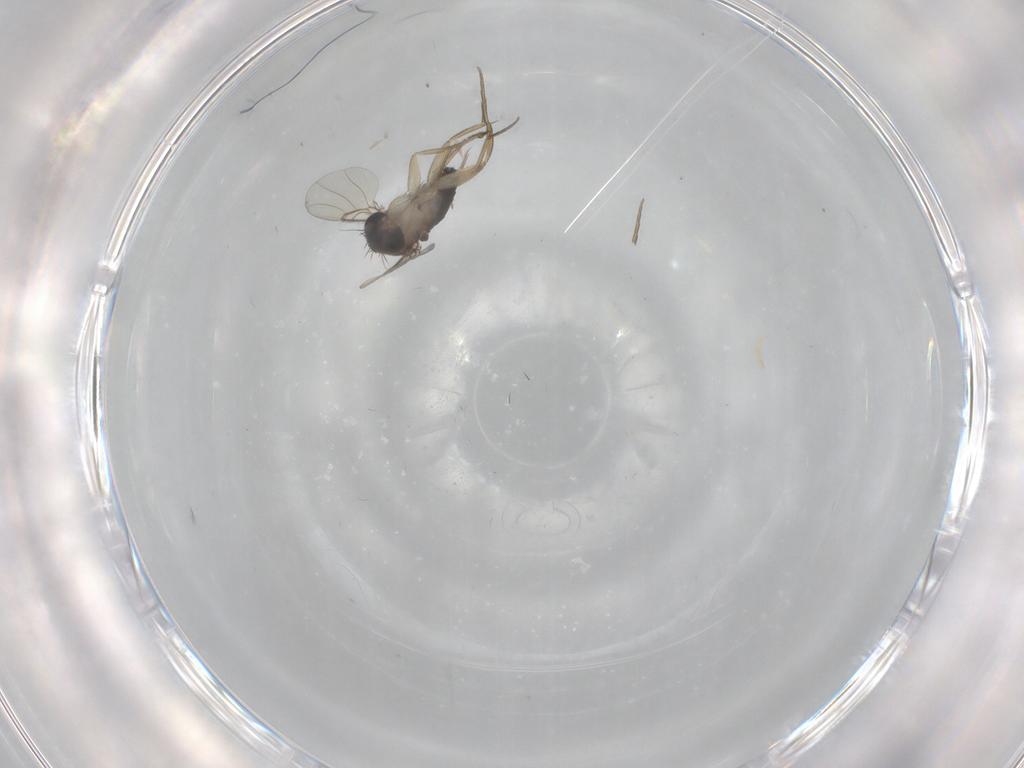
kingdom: Animalia
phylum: Arthropoda
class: Insecta
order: Diptera
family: Phoridae
